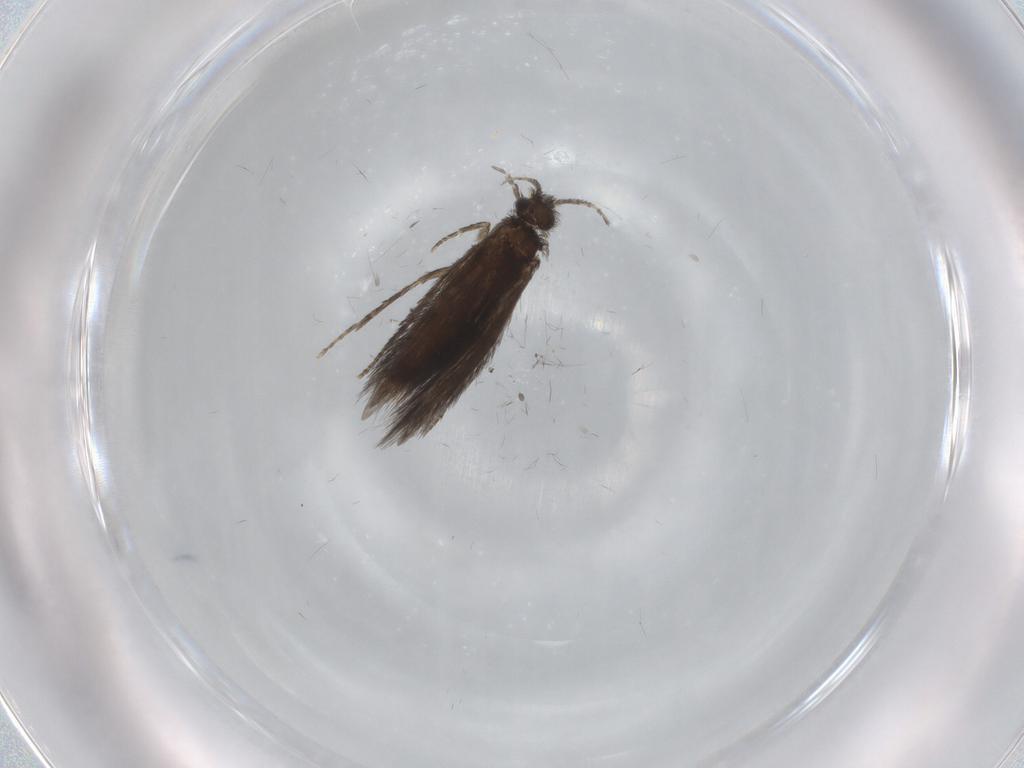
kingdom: Animalia
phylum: Arthropoda
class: Insecta
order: Trichoptera
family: Hydroptilidae
